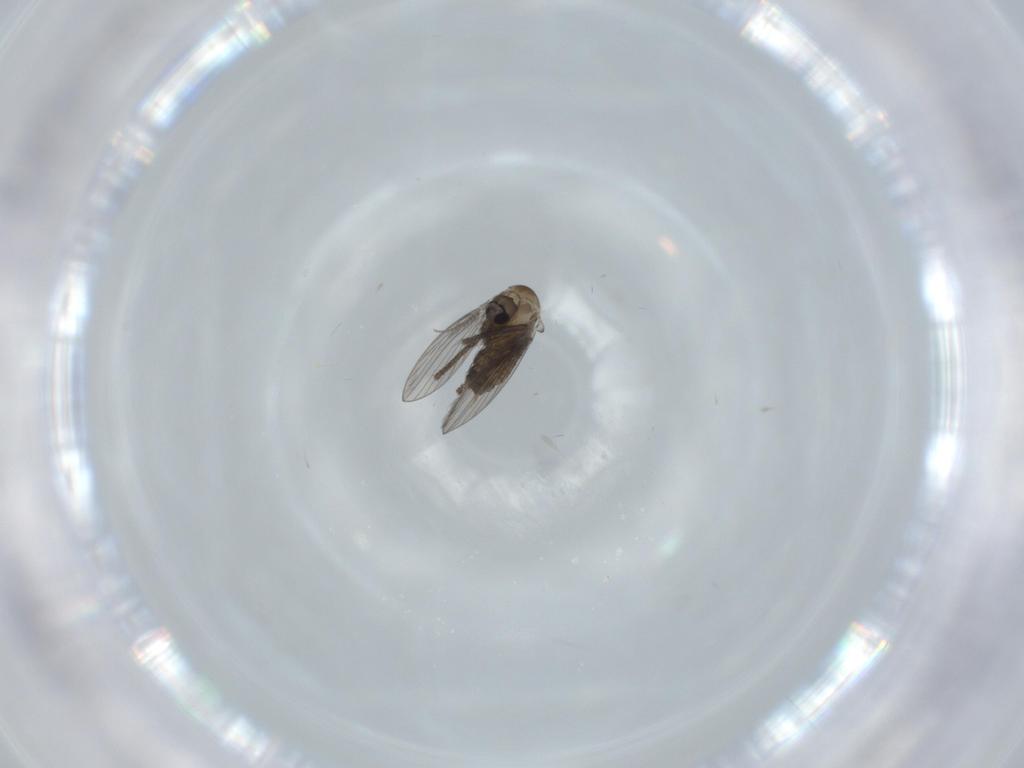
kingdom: Animalia
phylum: Arthropoda
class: Insecta
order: Diptera
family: Psychodidae
